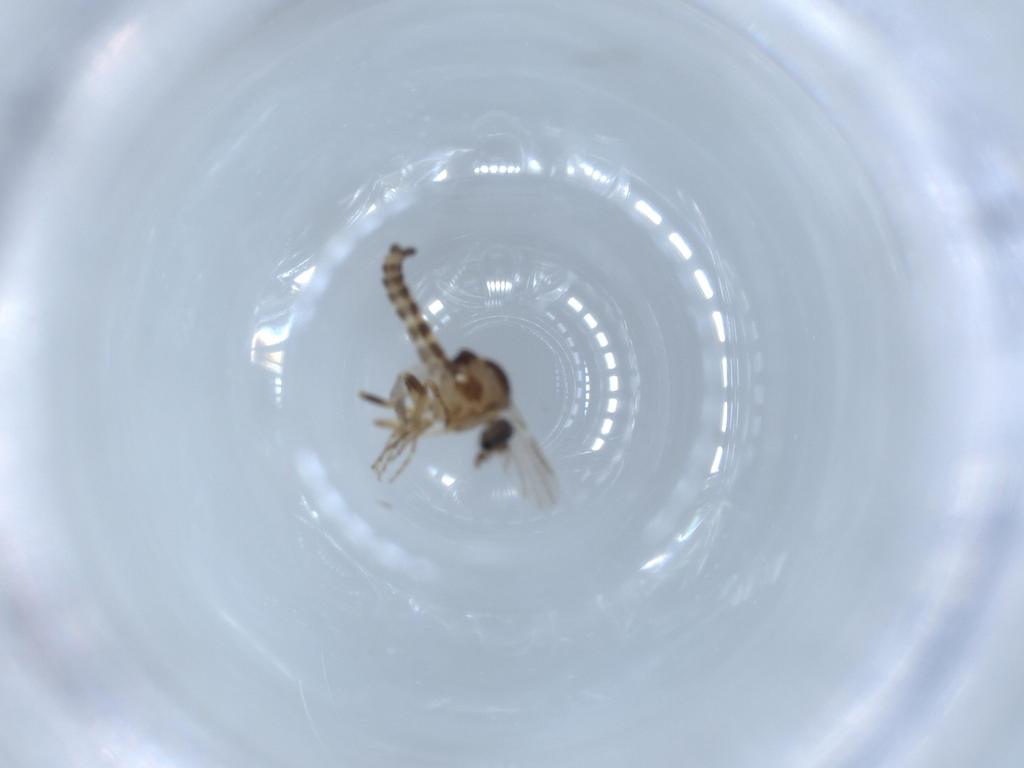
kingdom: Animalia
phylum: Arthropoda
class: Insecta
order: Diptera
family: Ceratopogonidae
